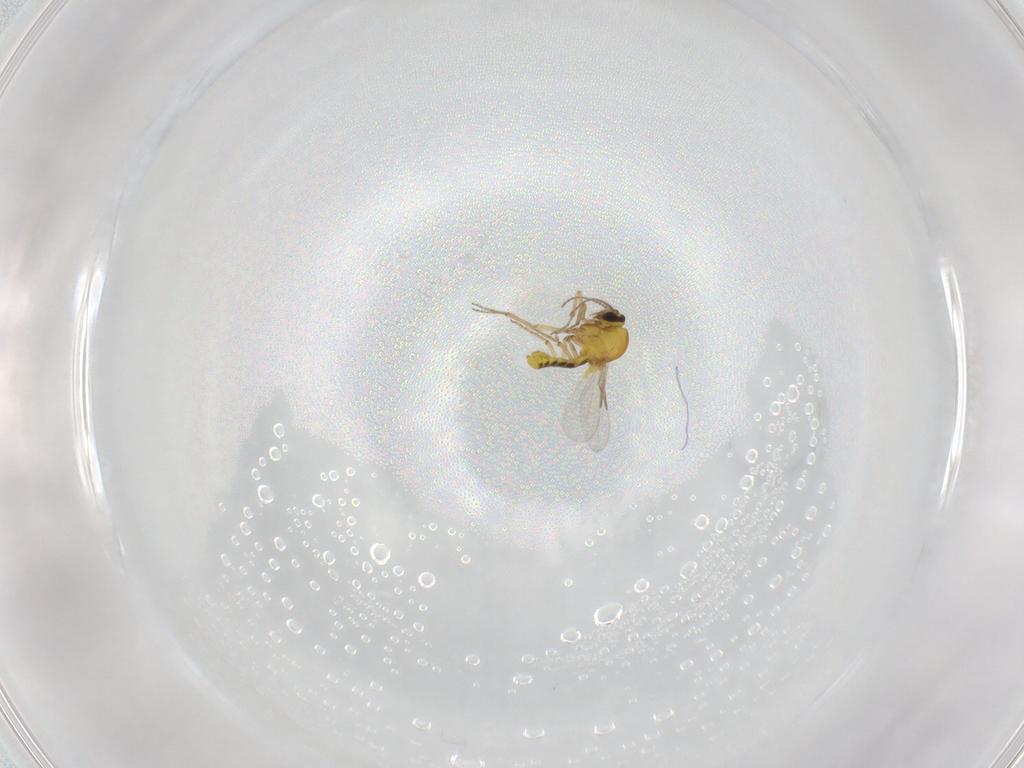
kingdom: Animalia
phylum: Arthropoda
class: Insecta
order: Diptera
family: Ceratopogonidae
